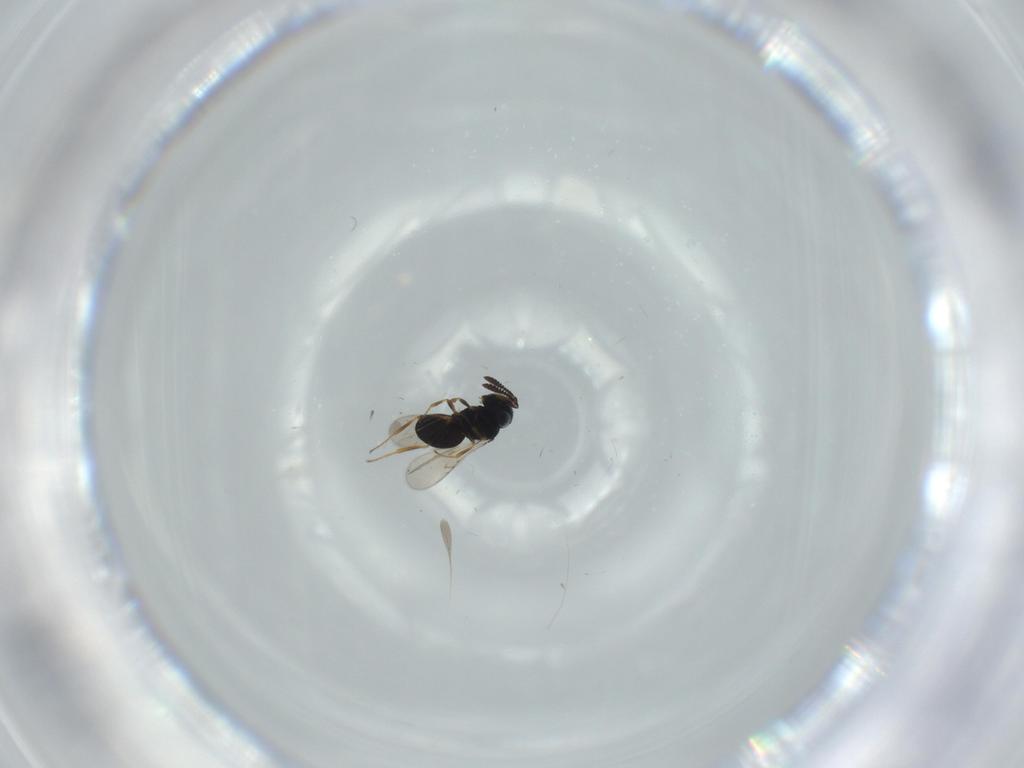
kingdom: Animalia
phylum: Arthropoda
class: Insecta
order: Hymenoptera
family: Scelionidae
